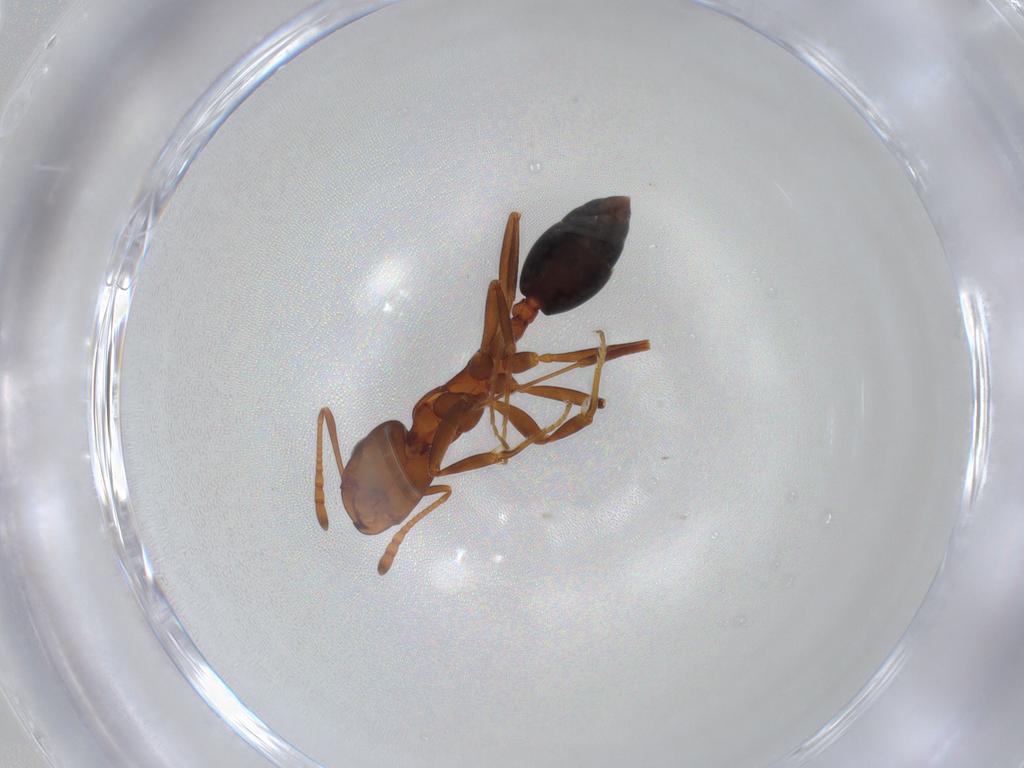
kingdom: Animalia
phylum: Arthropoda
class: Insecta
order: Hymenoptera
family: Formicidae
